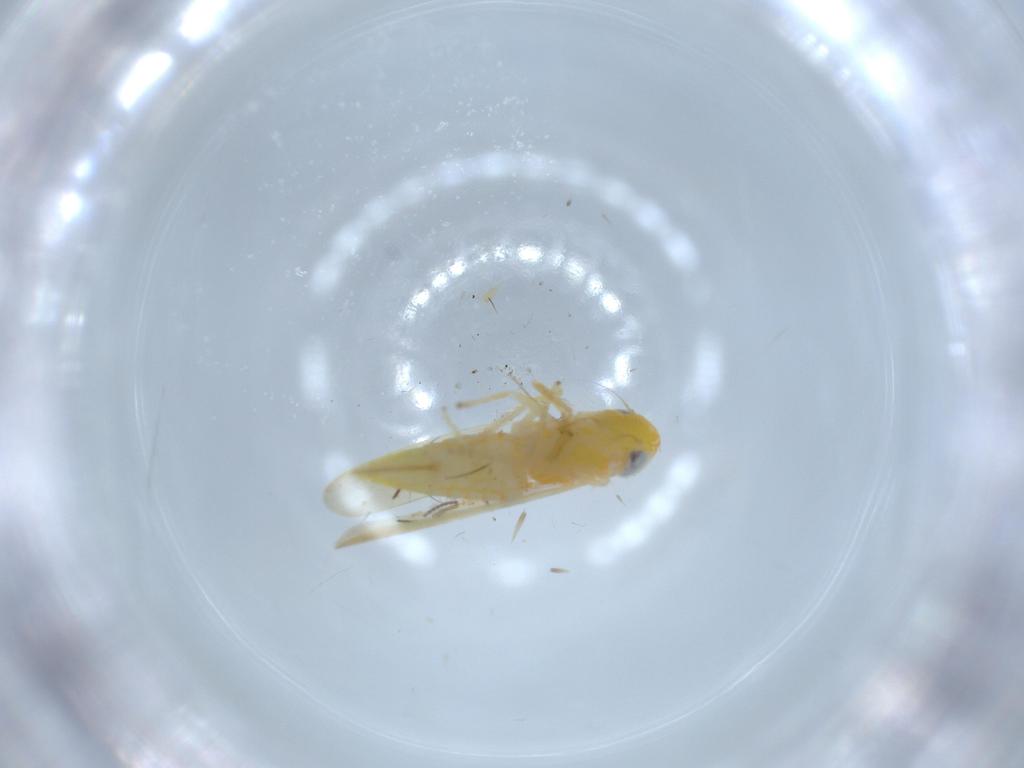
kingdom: Animalia
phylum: Arthropoda
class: Insecta
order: Hemiptera
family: Cicadellidae
